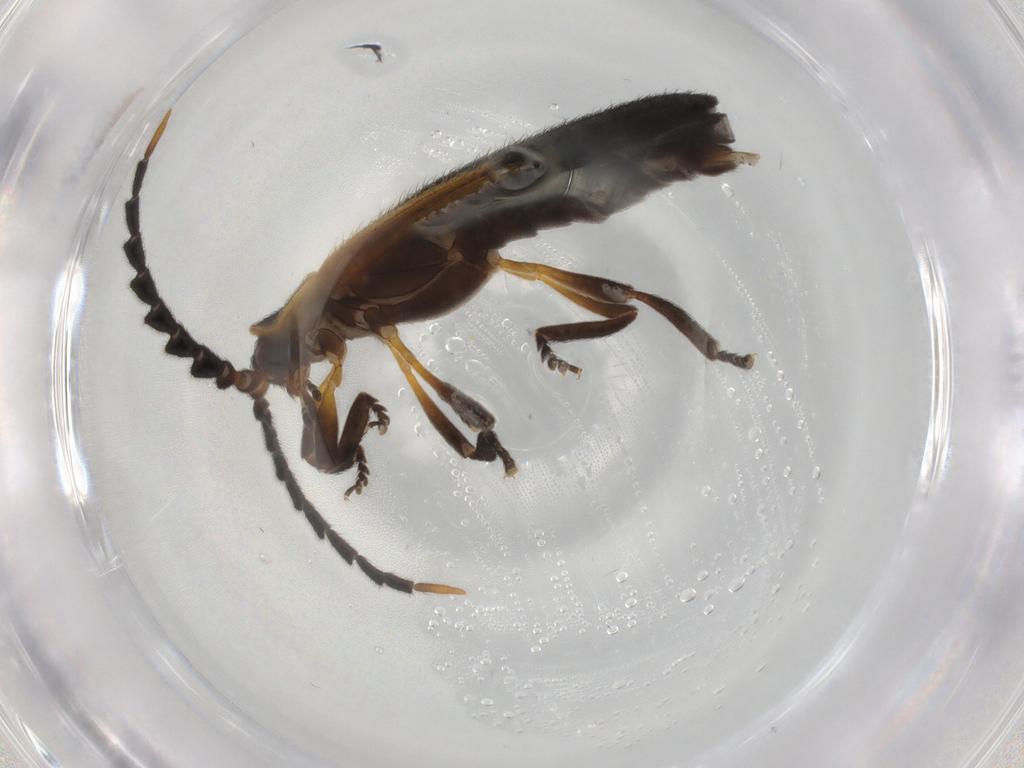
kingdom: Animalia
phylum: Arthropoda
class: Insecta
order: Coleoptera
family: Lycidae
